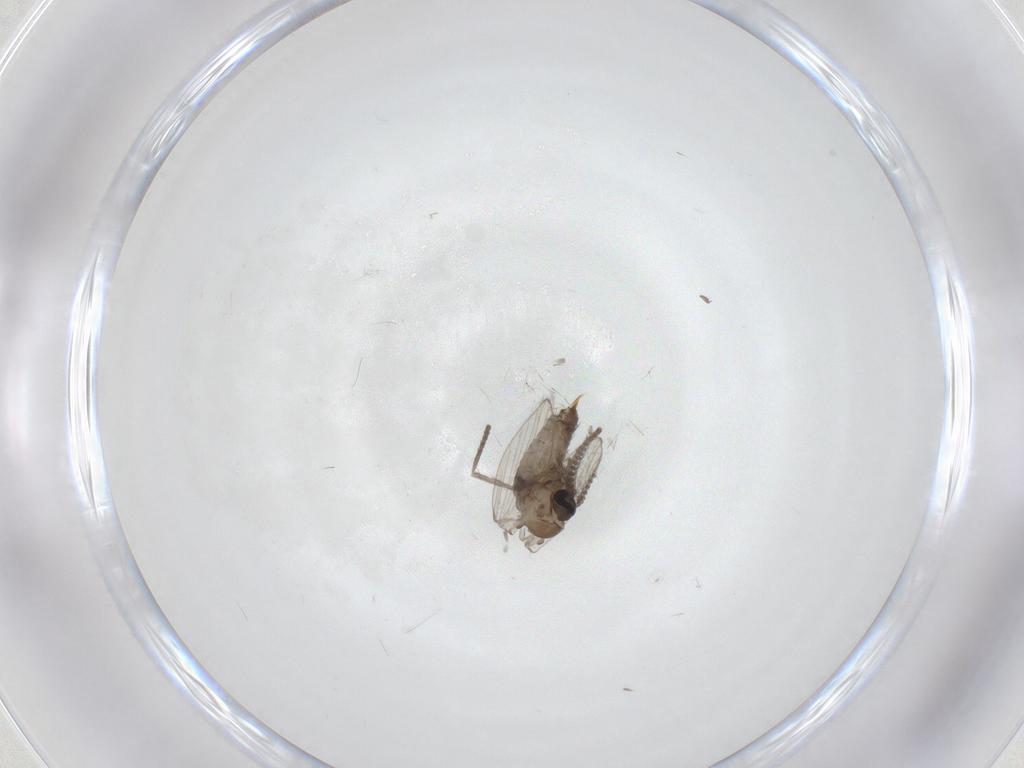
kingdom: Animalia
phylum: Arthropoda
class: Insecta
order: Diptera
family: Psychodidae
